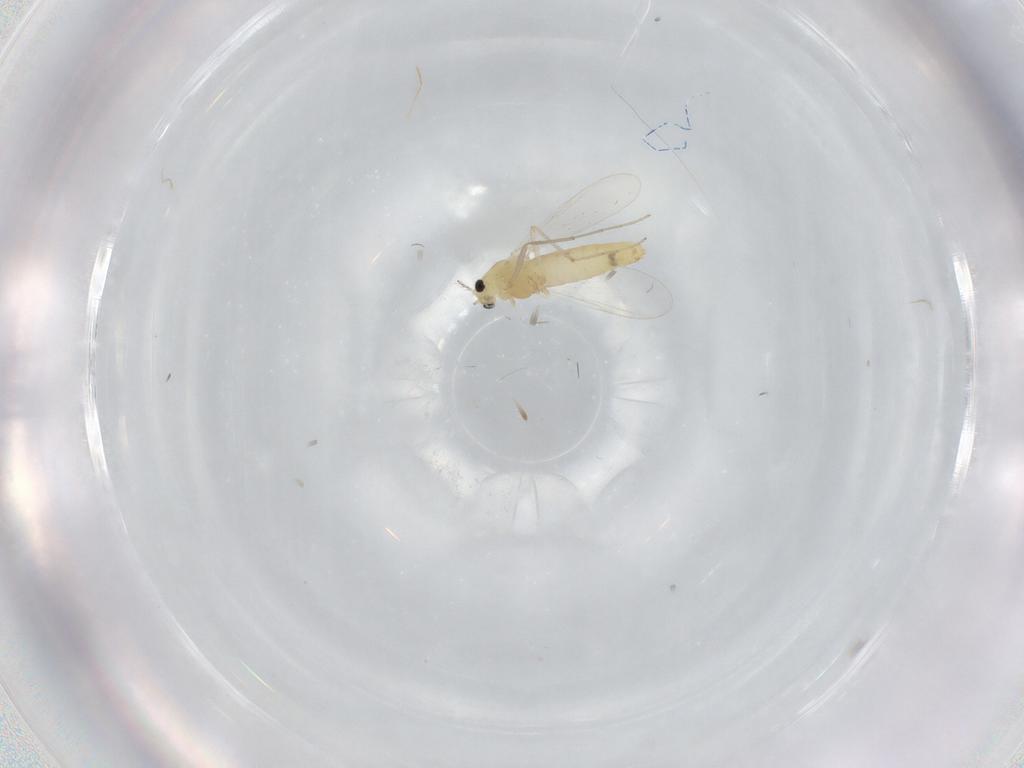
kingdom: Animalia
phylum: Arthropoda
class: Insecta
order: Diptera
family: Chironomidae
